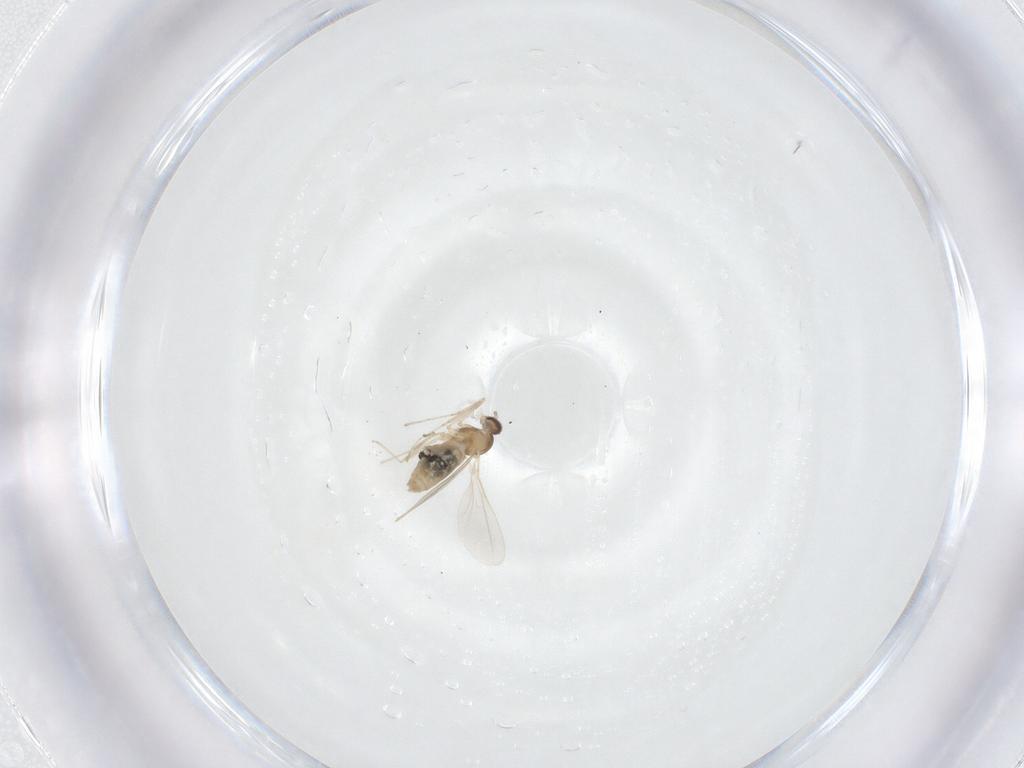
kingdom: Animalia
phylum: Arthropoda
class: Insecta
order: Diptera
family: Cecidomyiidae
